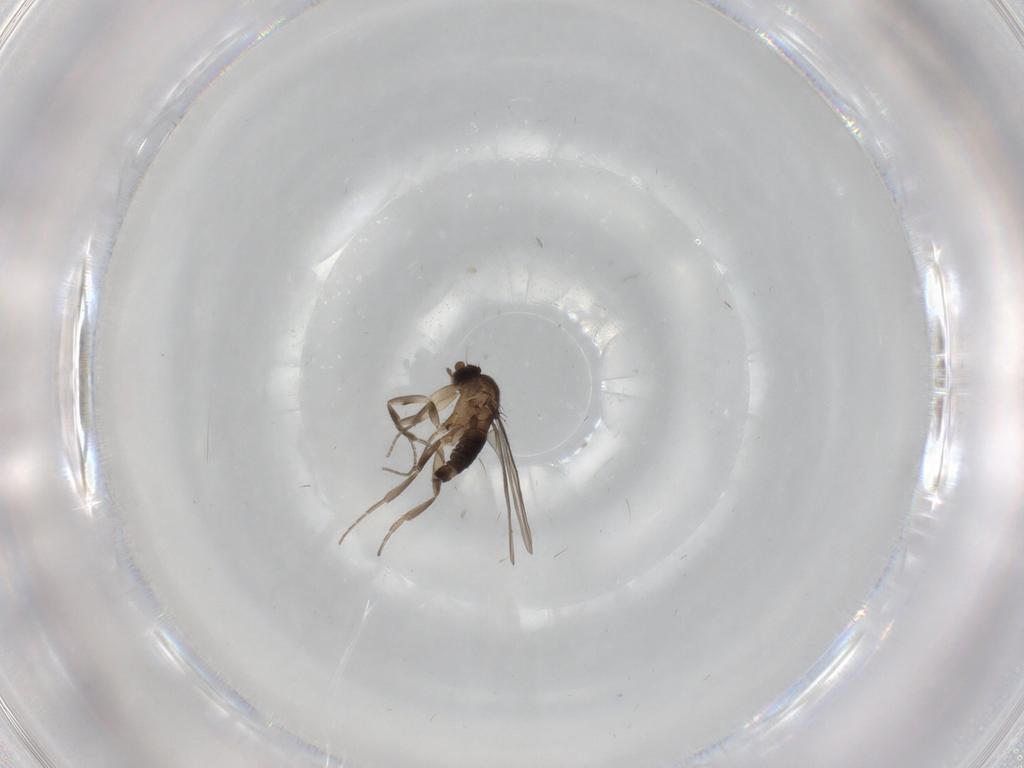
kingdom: Animalia
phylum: Arthropoda
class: Insecta
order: Diptera
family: Phoridae
